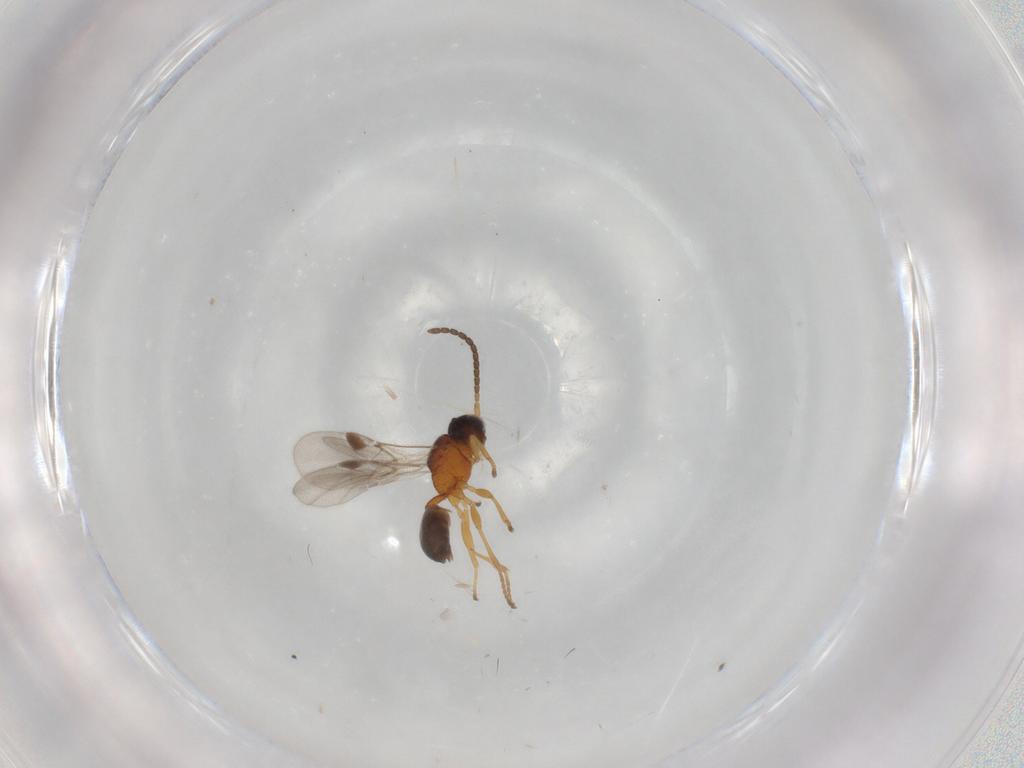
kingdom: Animalia
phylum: Arthropoda
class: Insecta
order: Hymenoptera
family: Braconidae
